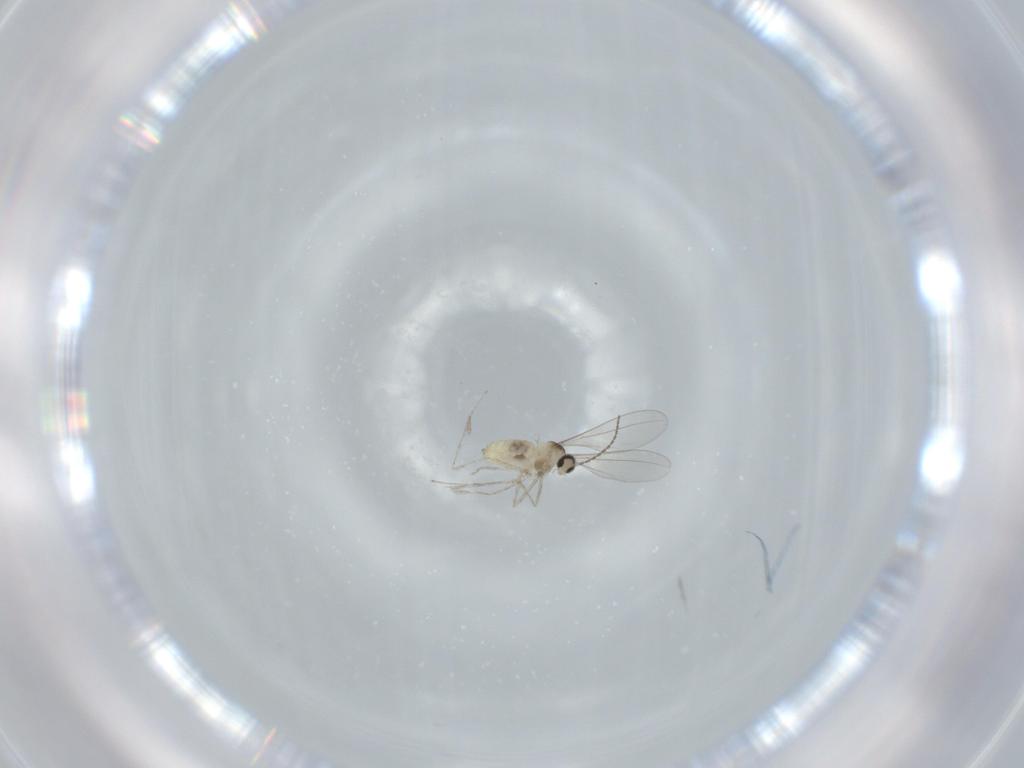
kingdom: Animalia
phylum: Arthropoda
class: Insecta
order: Diptera
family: Cecidomyiidae
